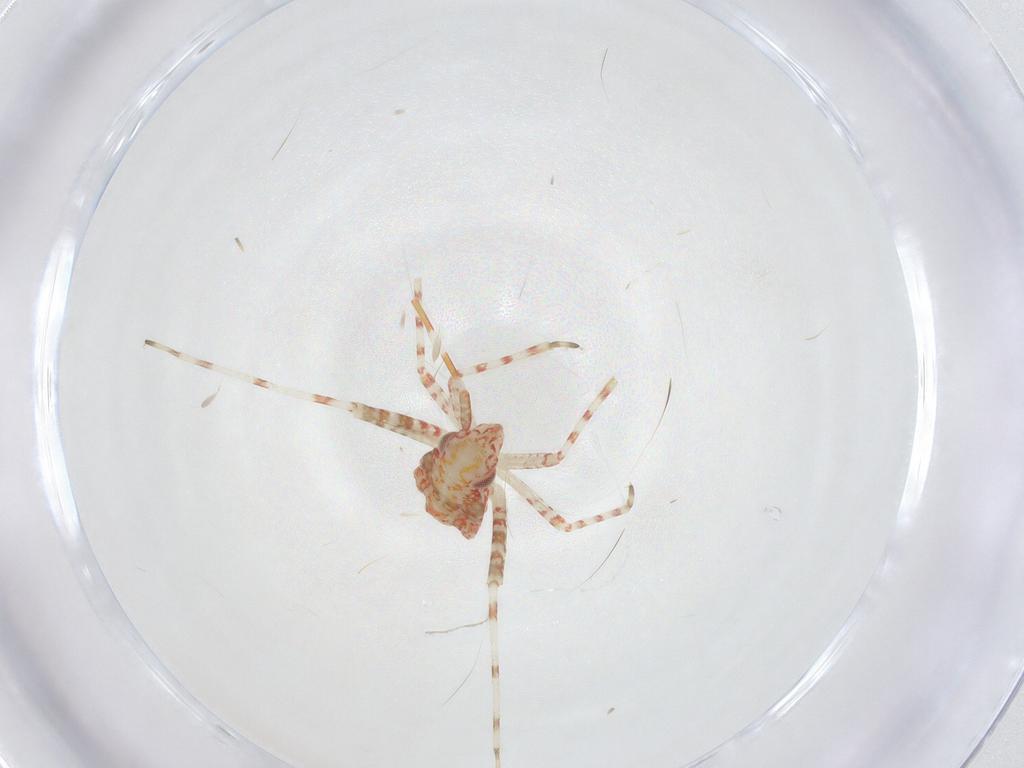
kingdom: Animalia
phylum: Arthropoda
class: Insecta
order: Hemiptera
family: Miridae
